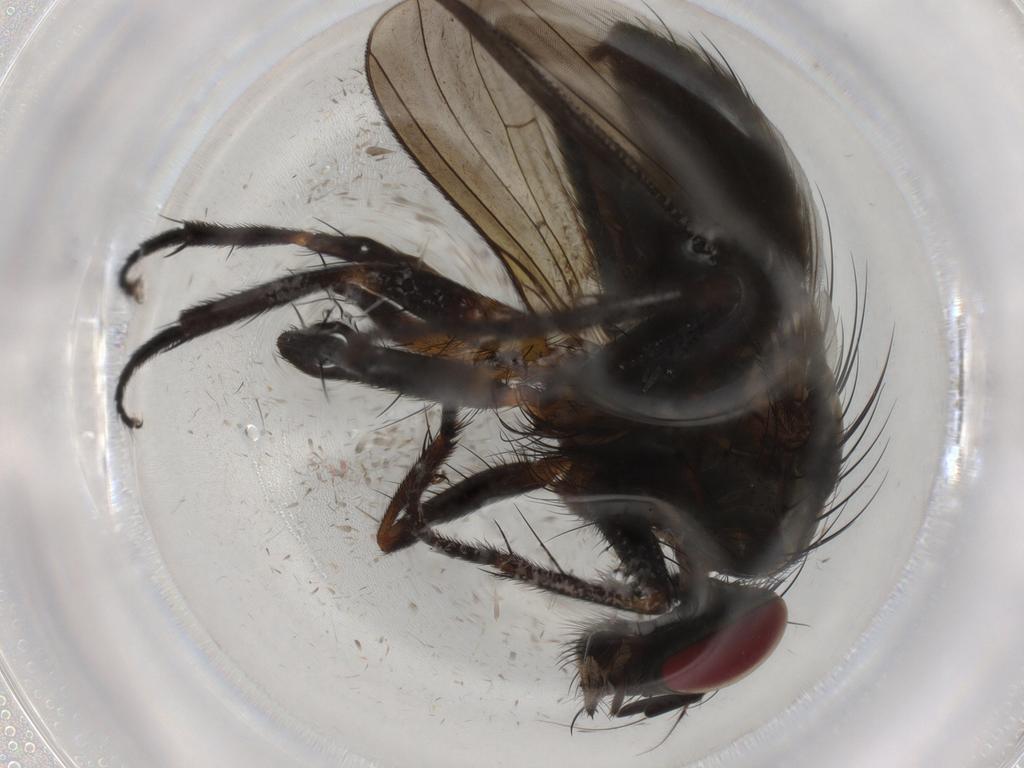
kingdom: Animalia
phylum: Arthropoda
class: Insecta
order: Diptera
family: Muscidae
